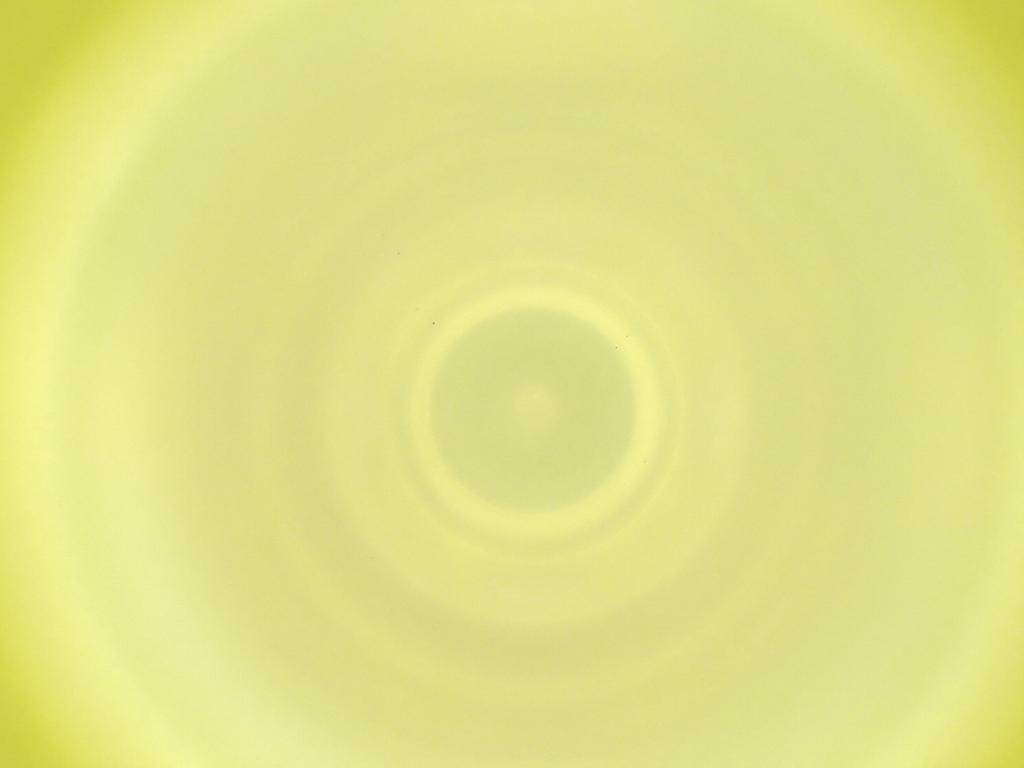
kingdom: Animalia
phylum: Arthropoda
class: Insecta
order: Diptera
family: Cecidomyiidae
